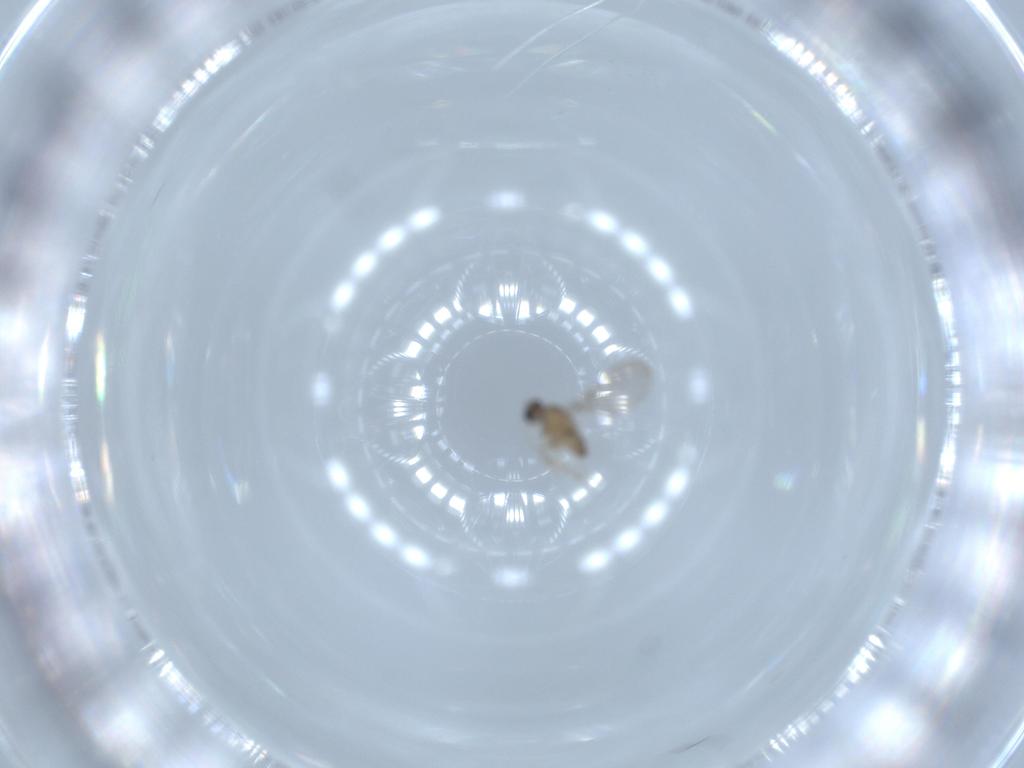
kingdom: Animalia
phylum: Arthropoda
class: Insecta
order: Diptera
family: Cecidomyiidae
